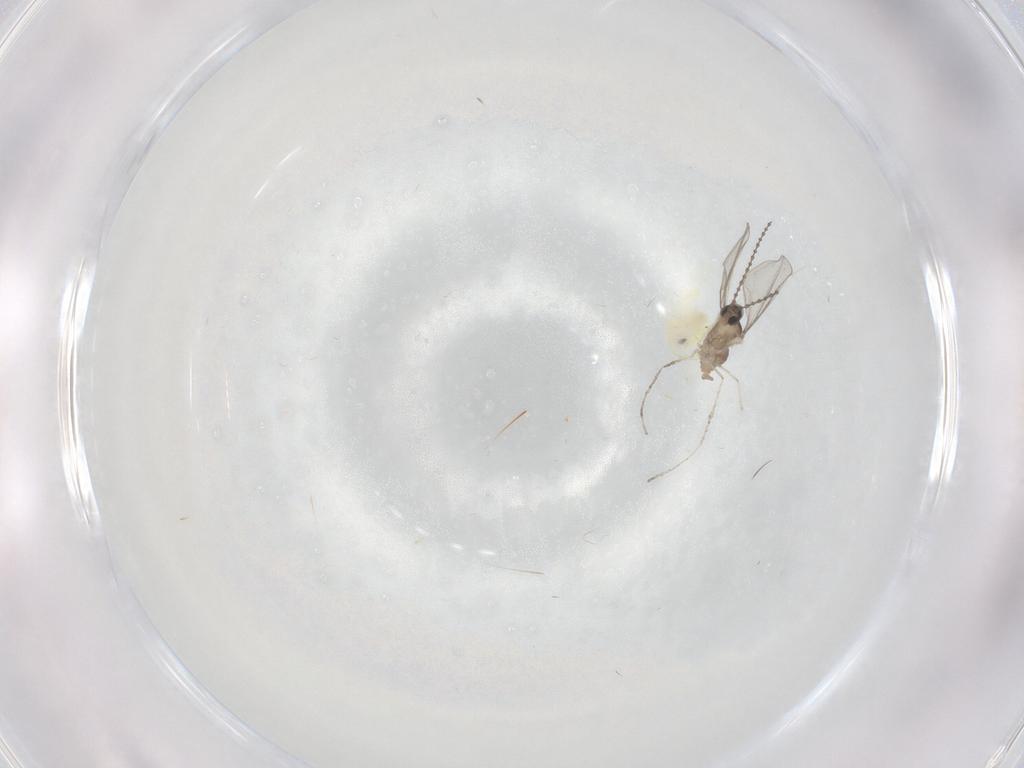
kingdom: Animalia
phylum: Arthropoda
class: Insecta
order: Diptera
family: Cecidomyiidae
